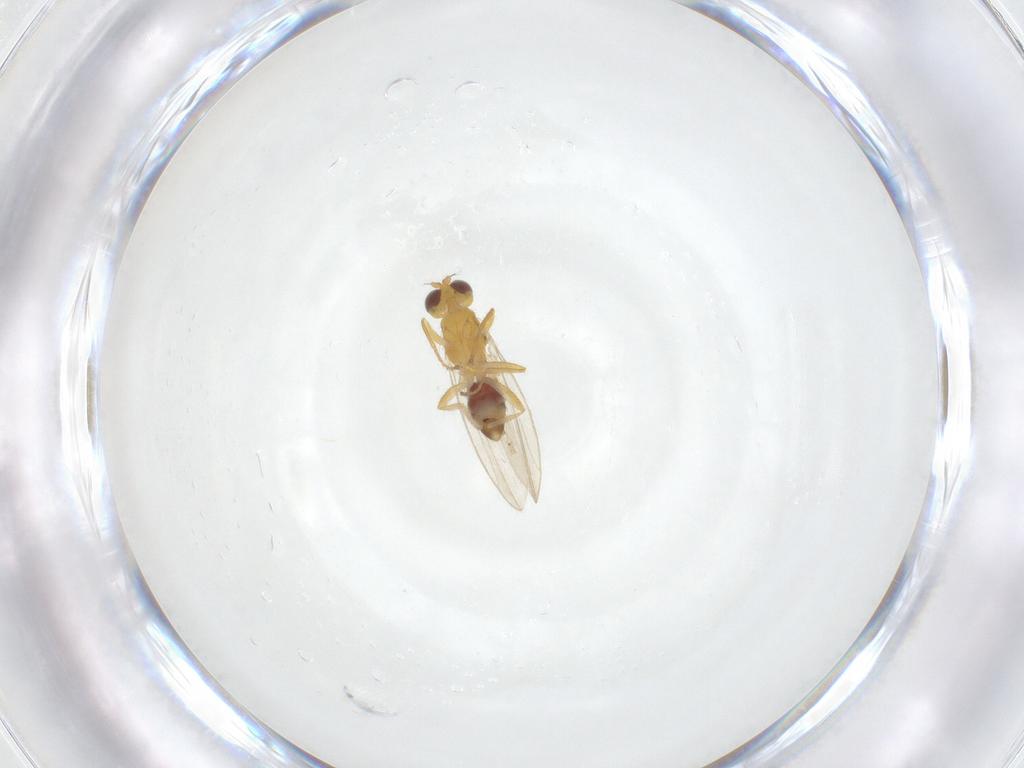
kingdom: Animalia
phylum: Arthropoda
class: Insecta
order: Diptera
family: Periscelididae
